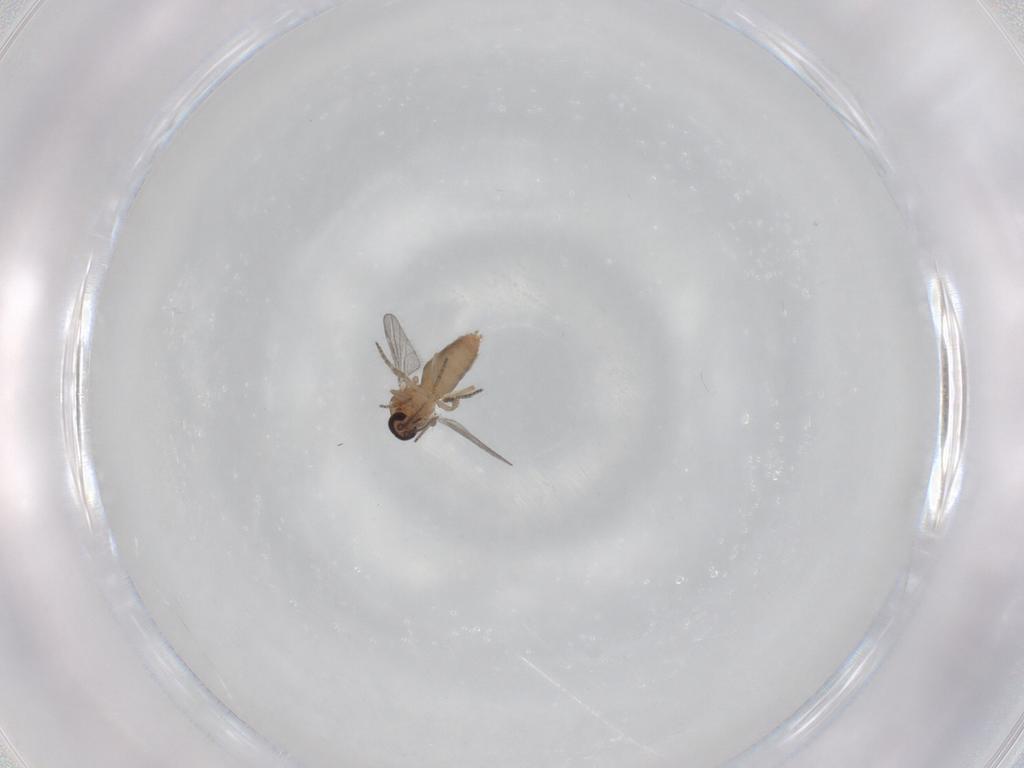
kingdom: Animalia
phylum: Arthropoda
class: Insecta
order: Diptera
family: Ceratopogonidae
